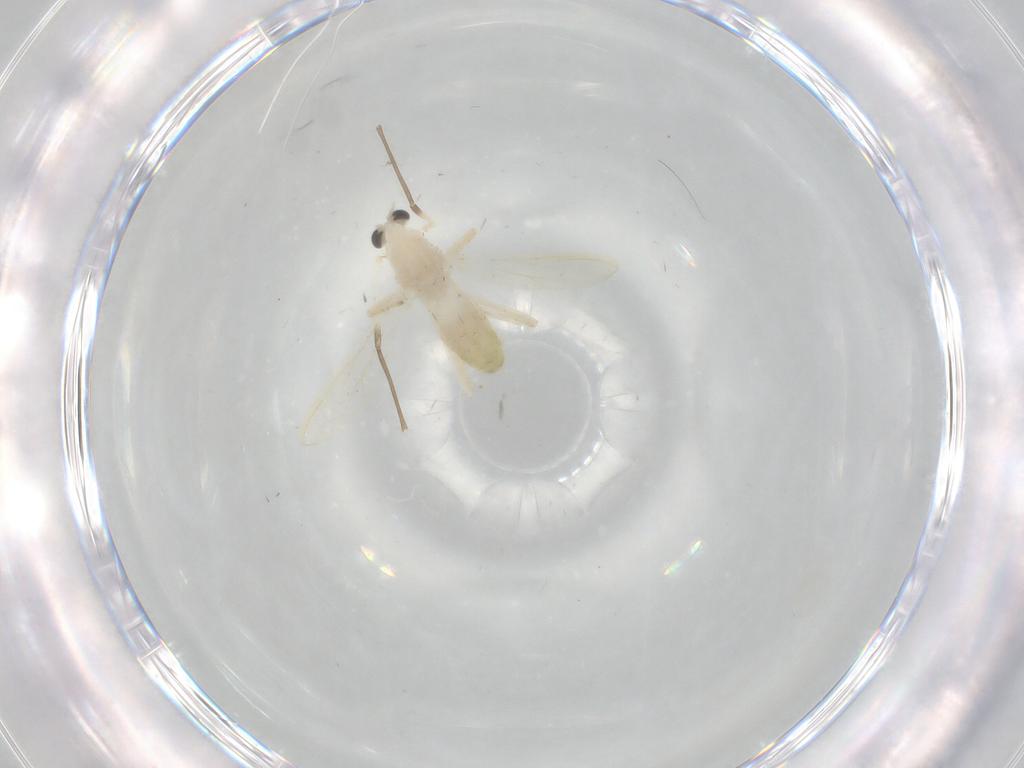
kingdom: Animalia
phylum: Arthropoda
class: Insecta
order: Diptera
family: Chironomidae
